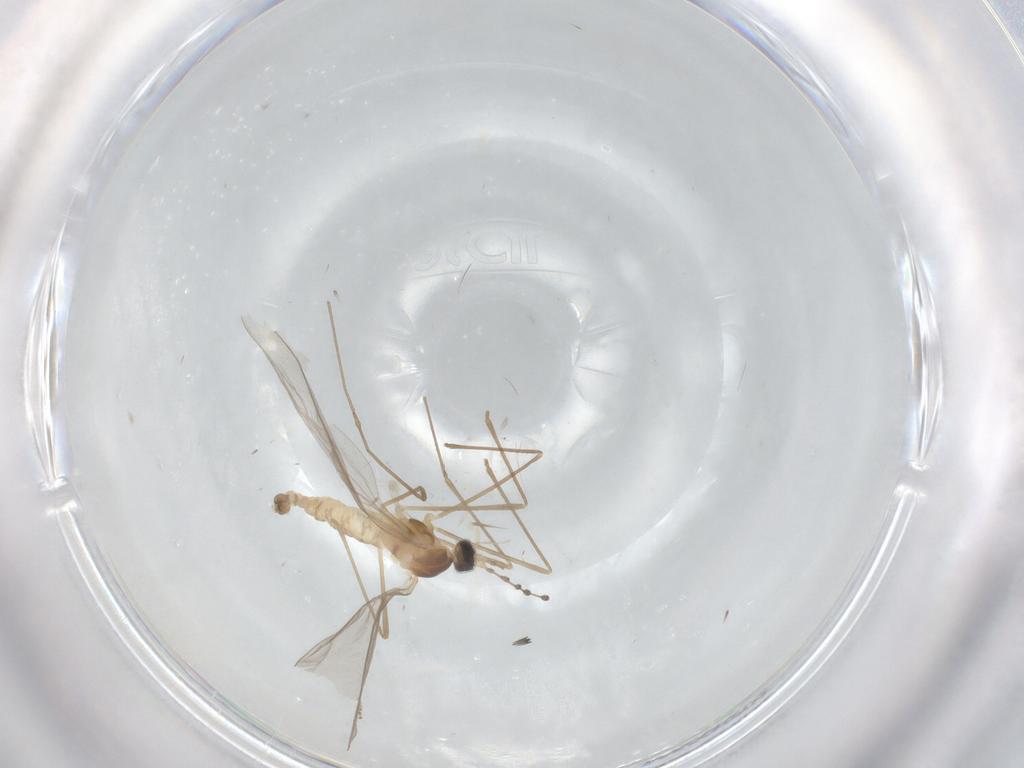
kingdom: Animalia
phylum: Arthropoda
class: Insecta
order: Diptera
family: Cecidomyiidae
